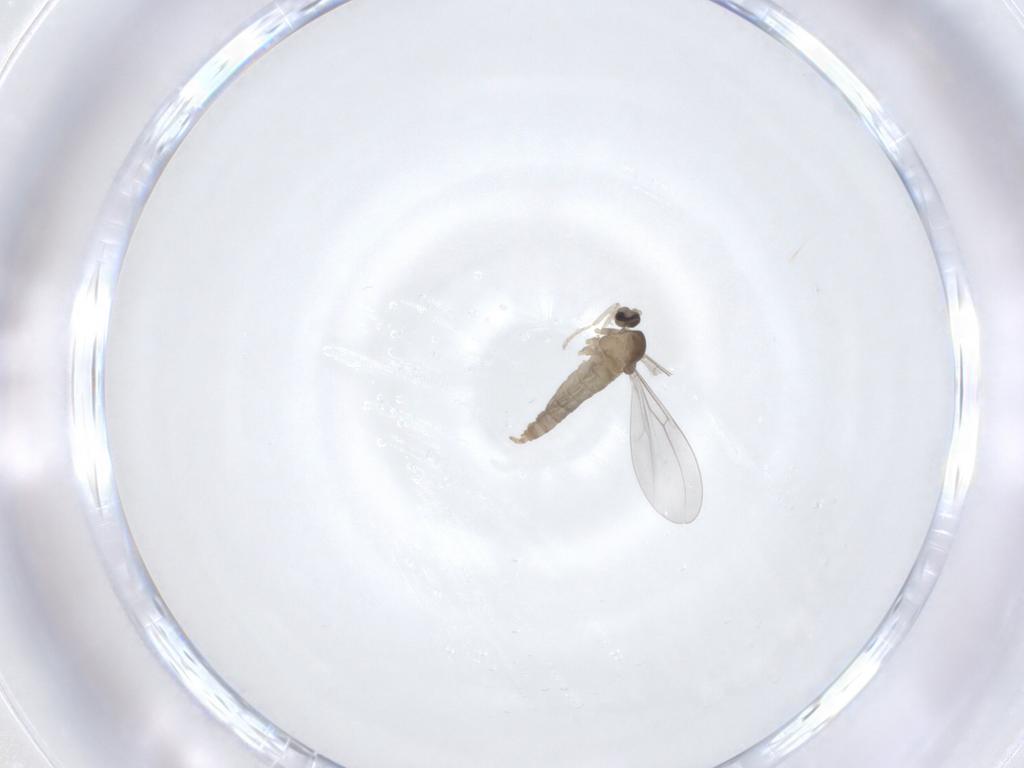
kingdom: Animalia
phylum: Arthropoda
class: Insecta
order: Diptera
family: Cecidomyiidae
